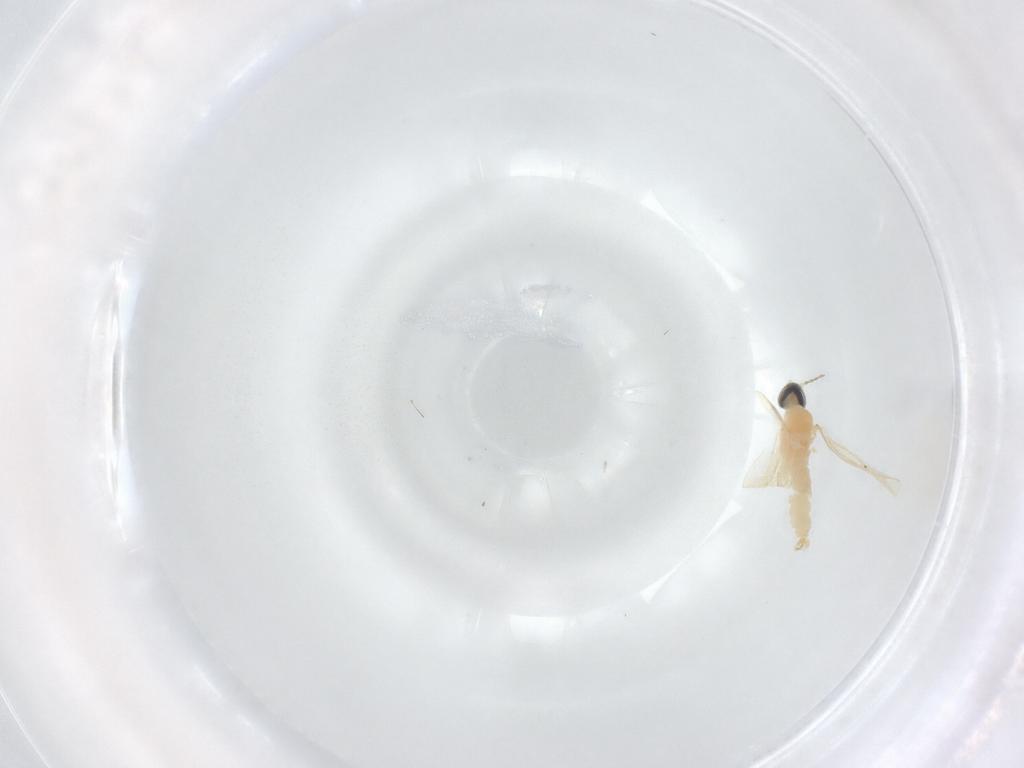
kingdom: Animalia
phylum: Arthropoda
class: Insecta
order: Diptera
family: Cecidomyiidae
